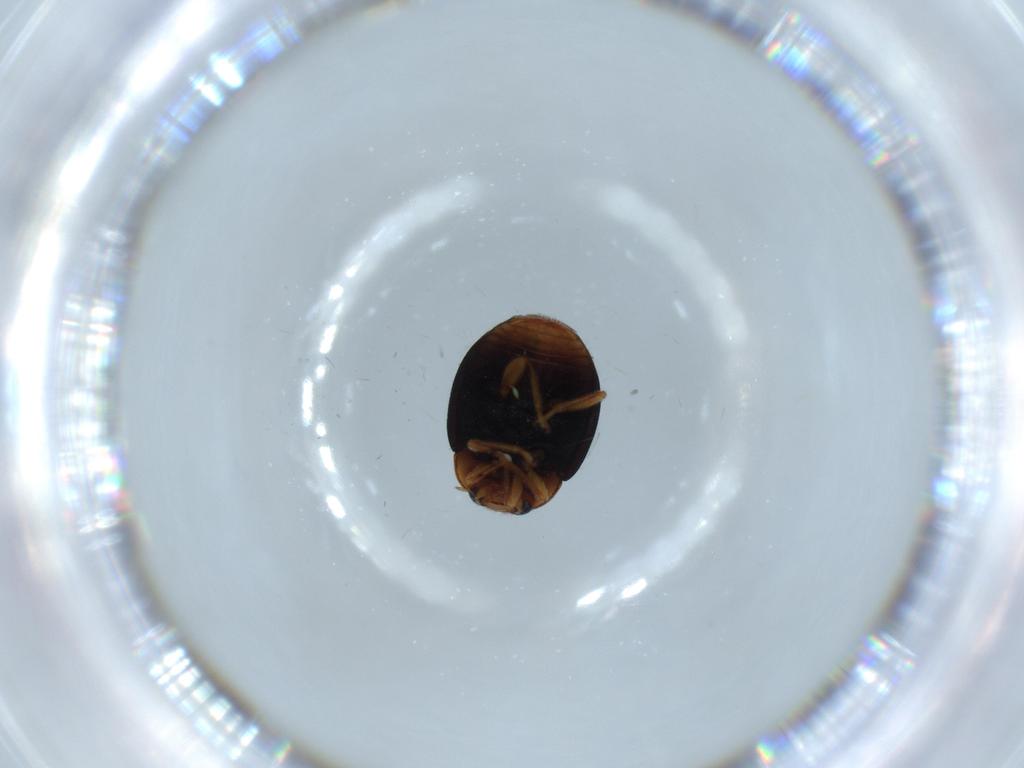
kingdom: Animalia
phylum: Arthropoda
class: Insecta
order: Coleoptera
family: Coccinellidae
